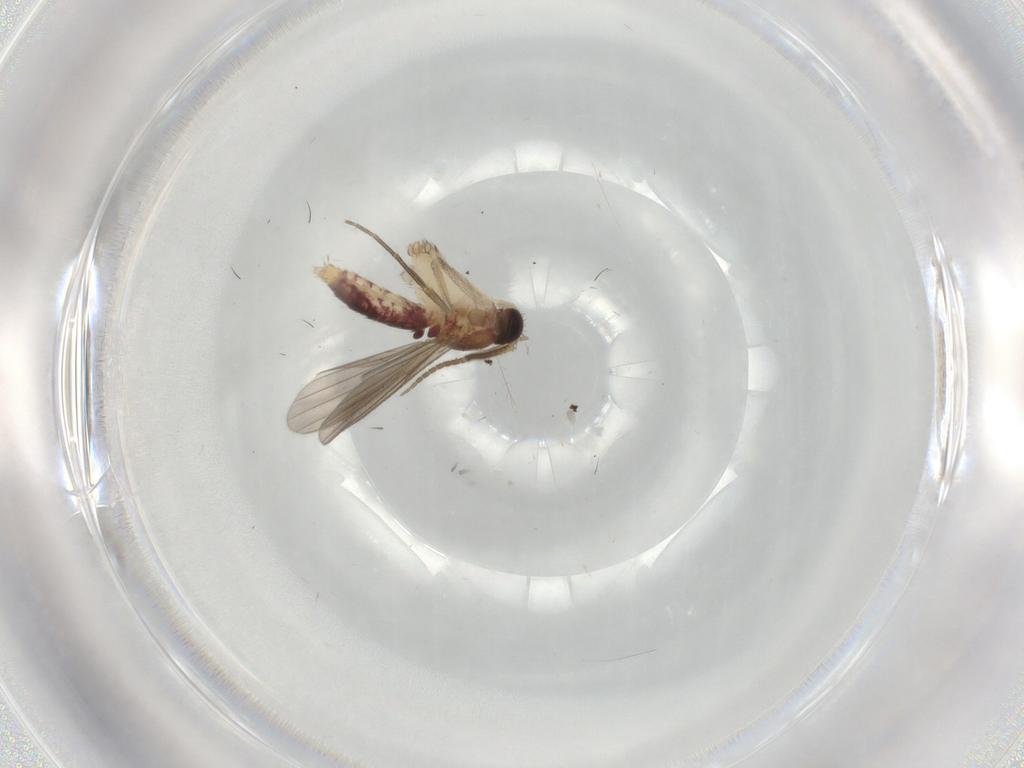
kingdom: Animalia
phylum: Arthropoda
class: Insecta
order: Diptera
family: Mycetophilidae
